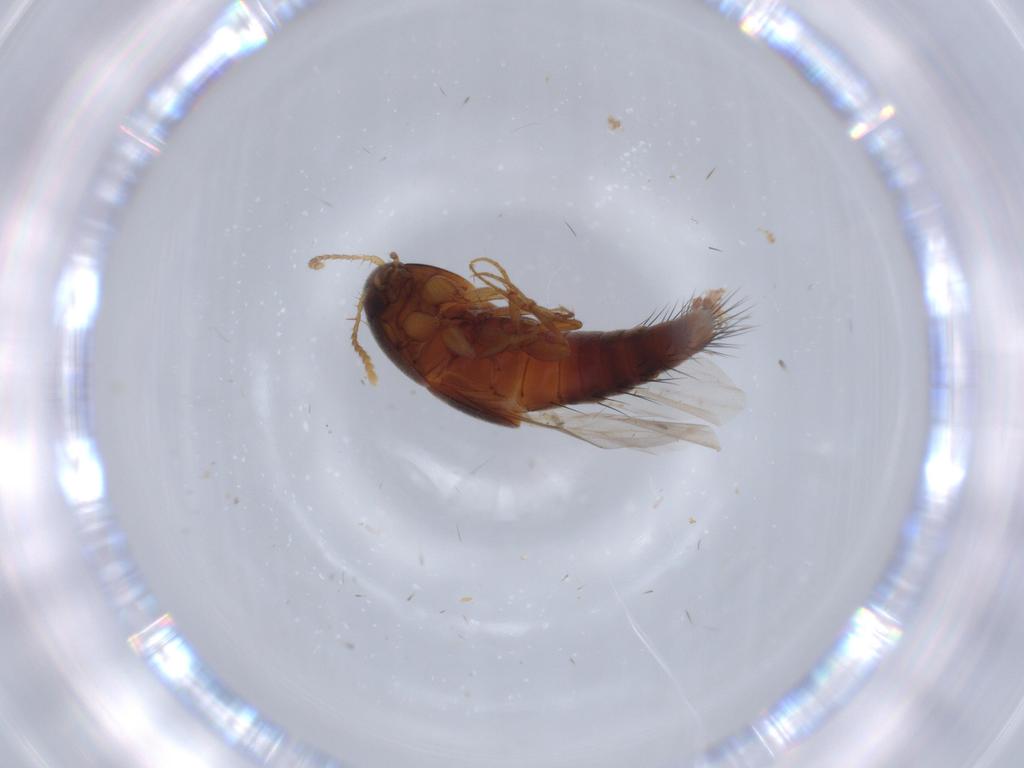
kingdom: Animalia
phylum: Arthropoda
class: Insecta
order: Coleoptera
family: Staphylinidae
